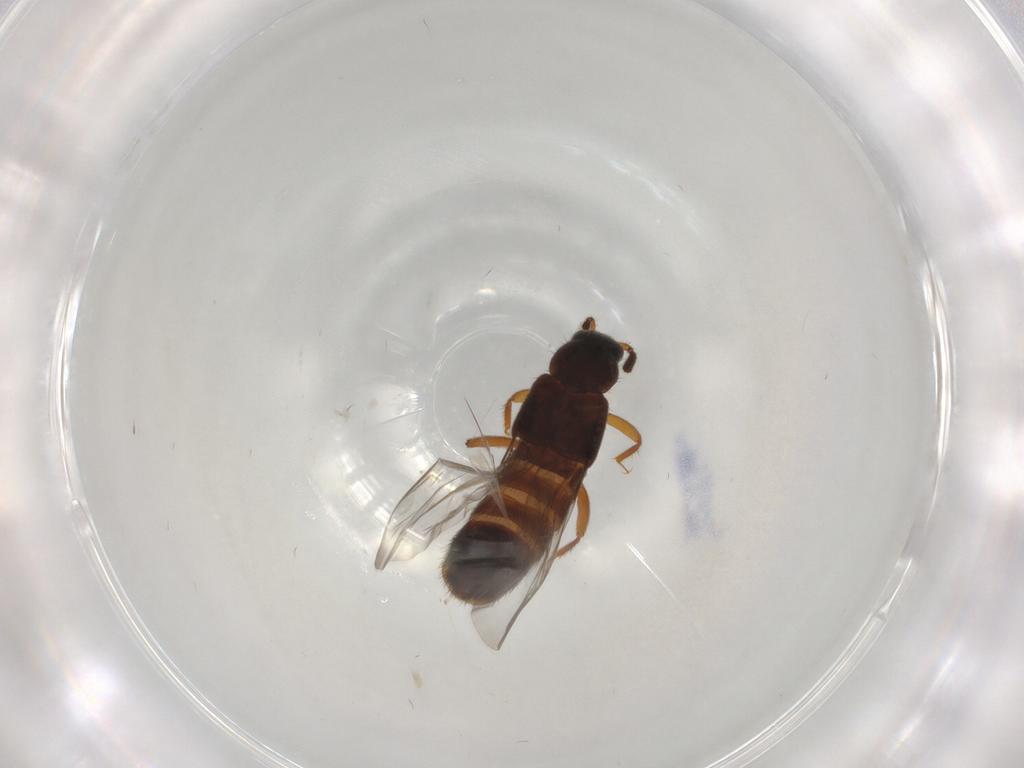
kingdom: Animalia
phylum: Arthropoda
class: Insecta
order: Coleoptera
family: Staphylinidae
